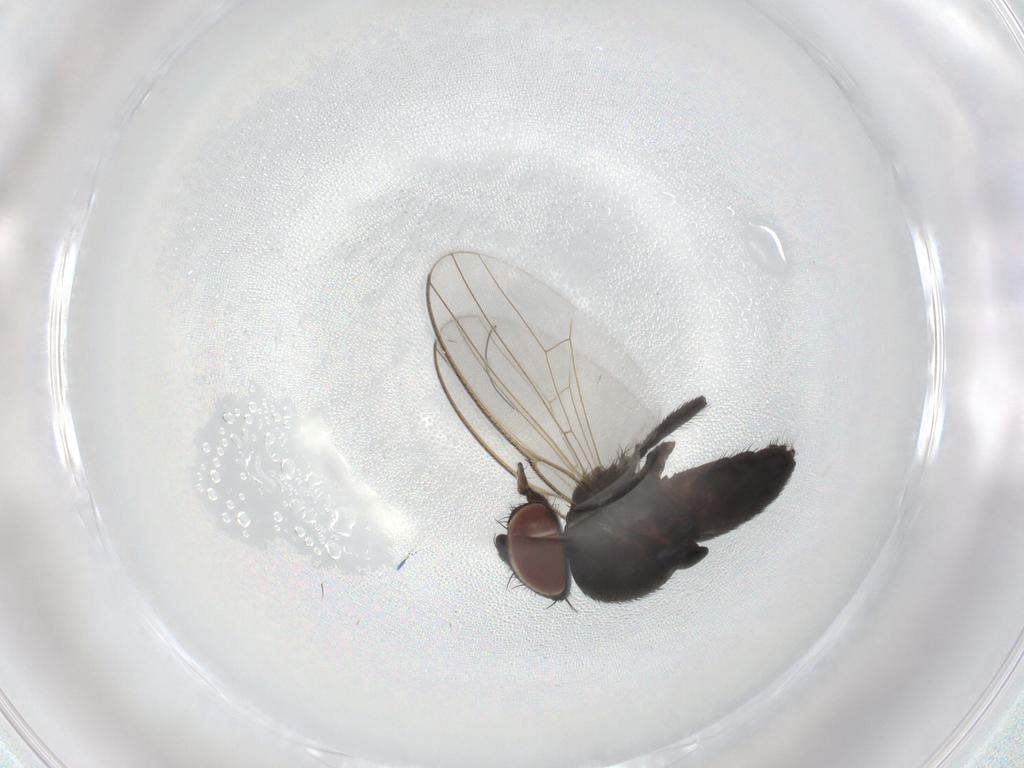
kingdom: Animalia
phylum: Arthropoda
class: Insecta
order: Diptera
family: Milichiidae
